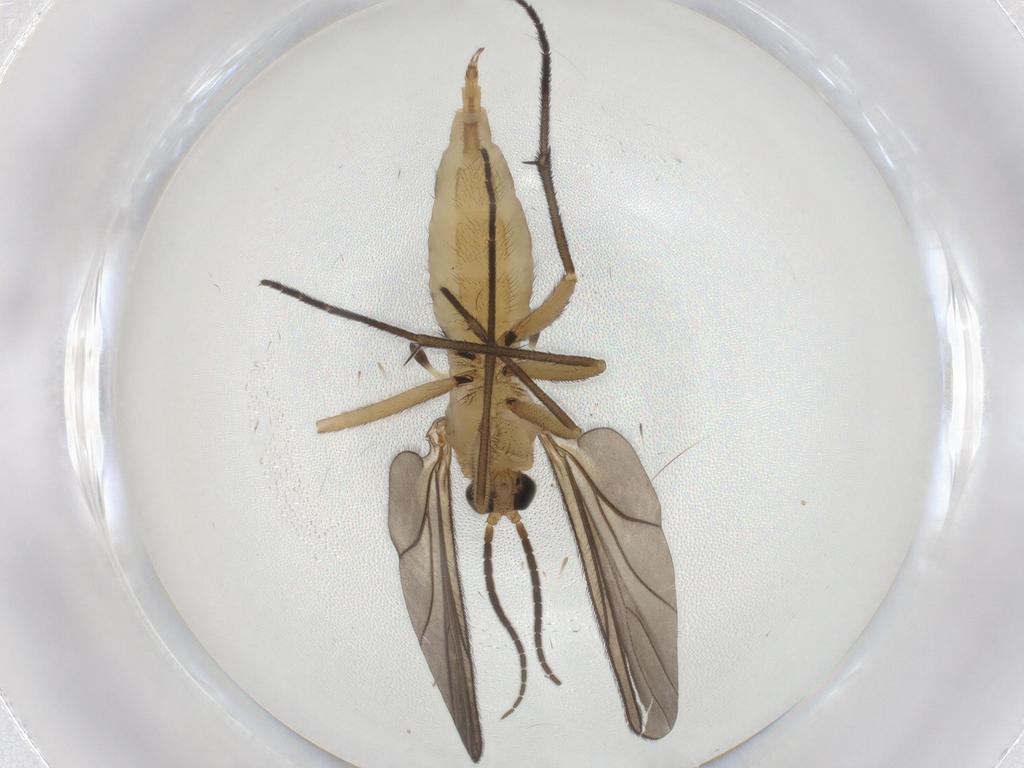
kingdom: Animalia
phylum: Arthropoda
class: Insecta
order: Diptera
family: Sciaridae
